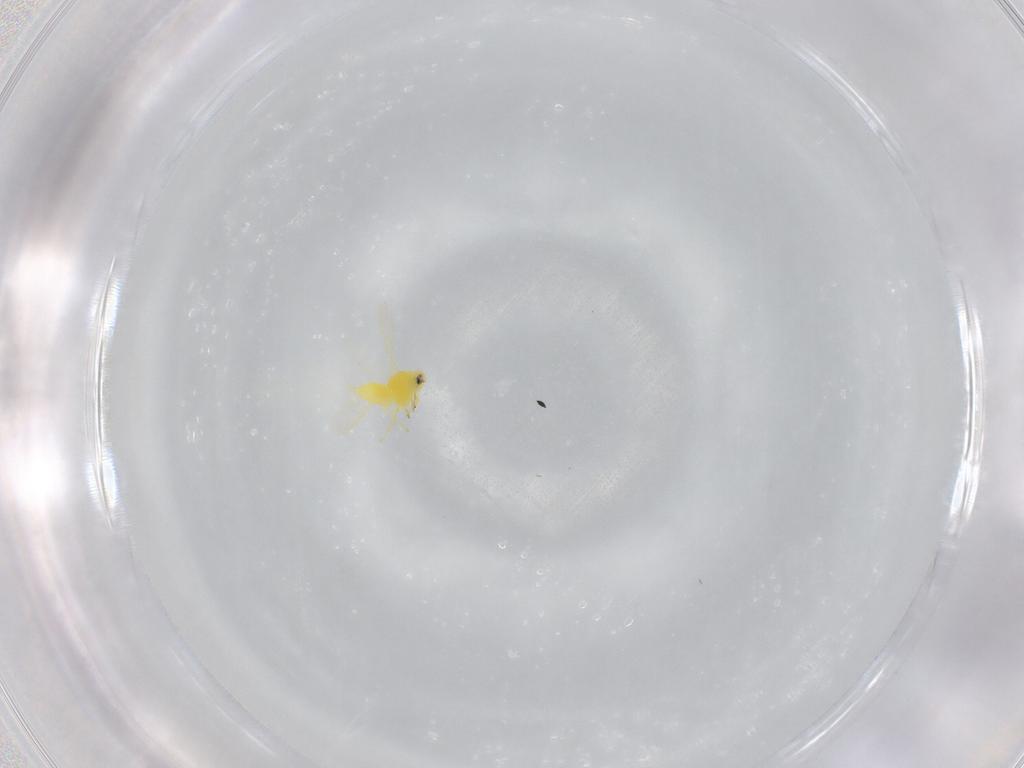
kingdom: Animalia
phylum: Arthropoda
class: Insecta
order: Hemiptera
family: Aleyrodidae
